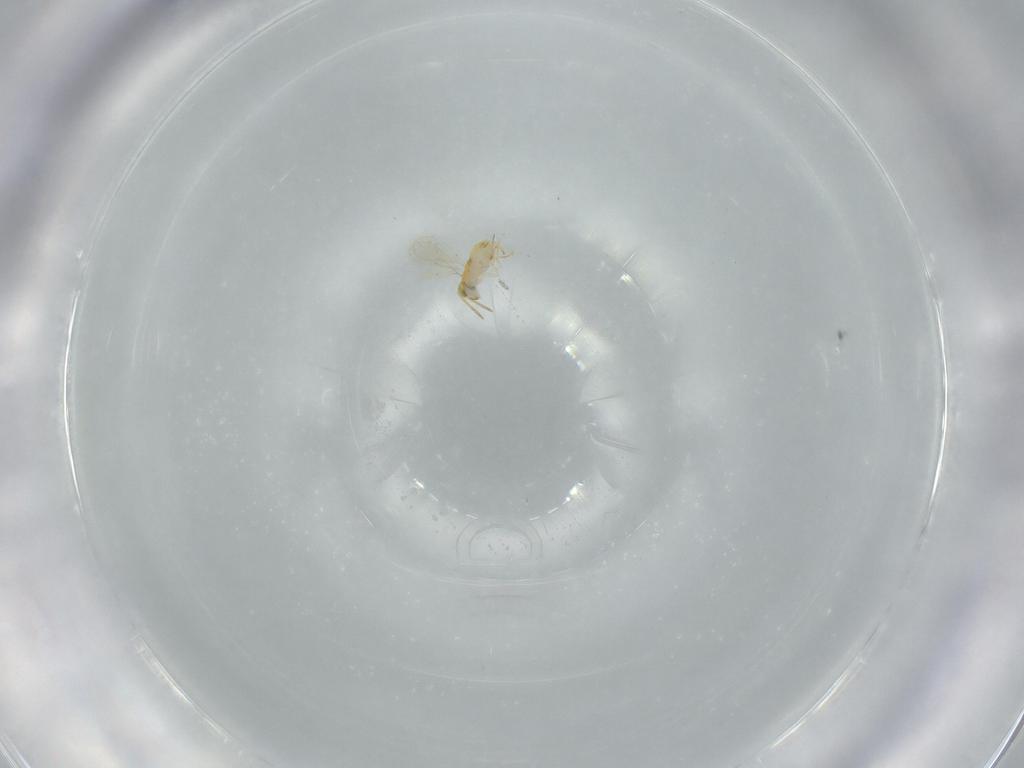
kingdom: Animalia
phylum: Arthropoda
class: Insecta
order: Hymenoptera
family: Aphelinidae
